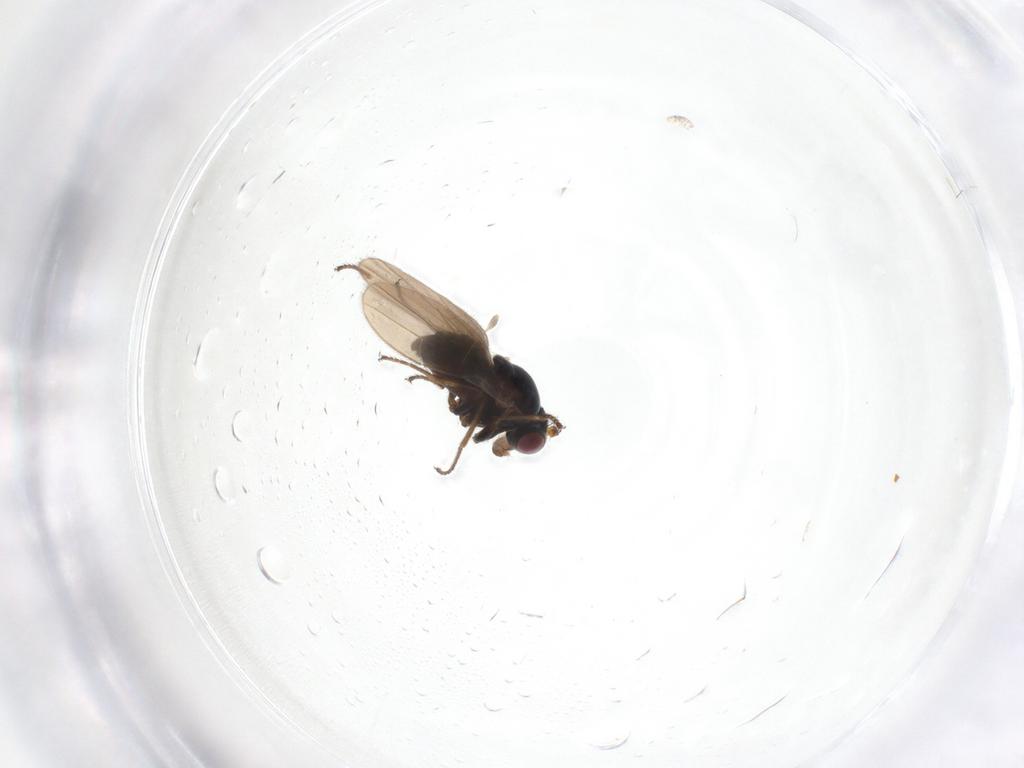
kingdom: Animalia
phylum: Arthropoda
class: Insecta
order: Diptera
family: Ephydridae
